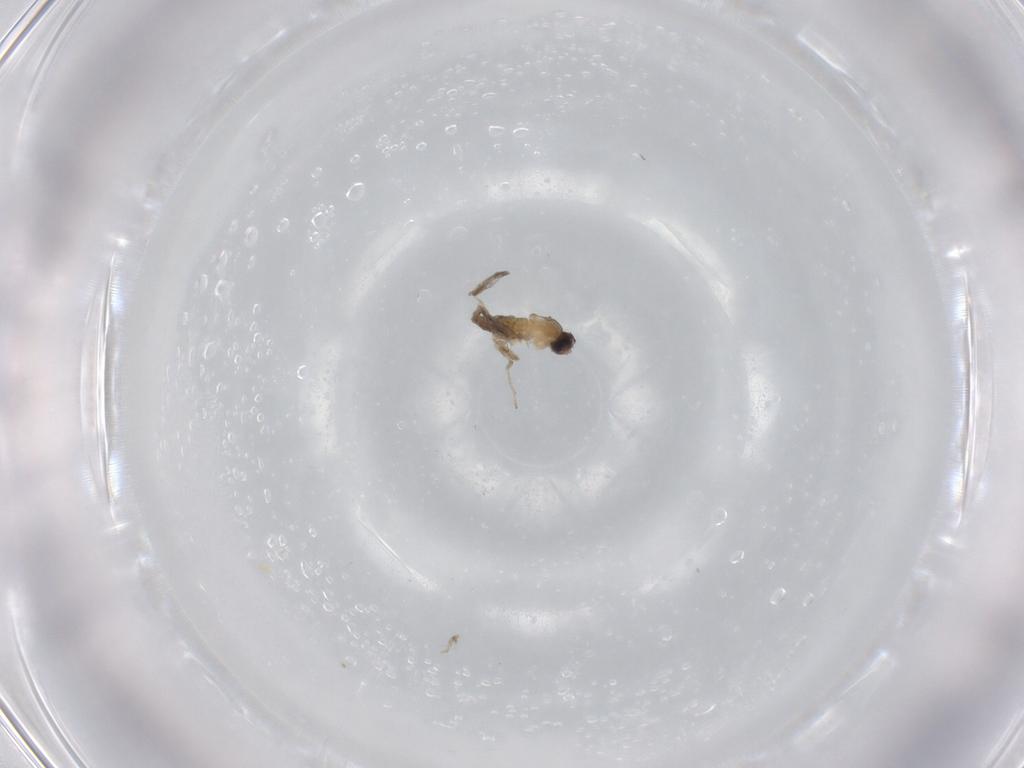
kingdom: Animalia
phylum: Arthropoda
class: Insecta
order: Diptera
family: Cecidomyiidae
